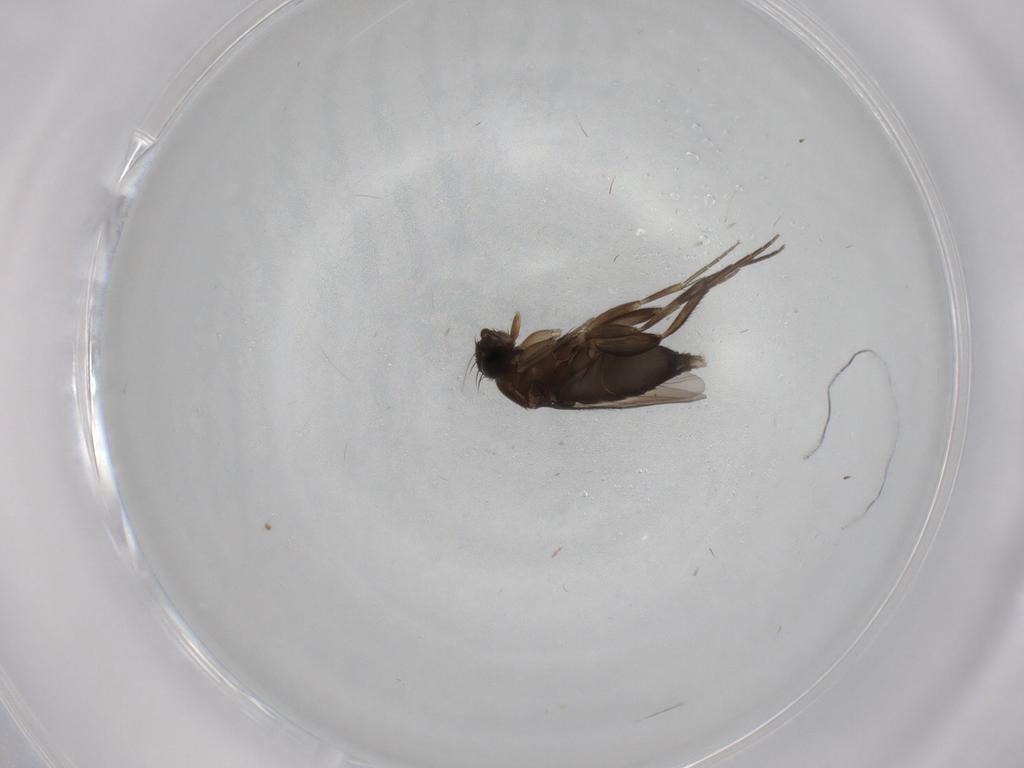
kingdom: Animalia
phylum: Arthropoda
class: Insecta
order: Diptera
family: Phoridae
